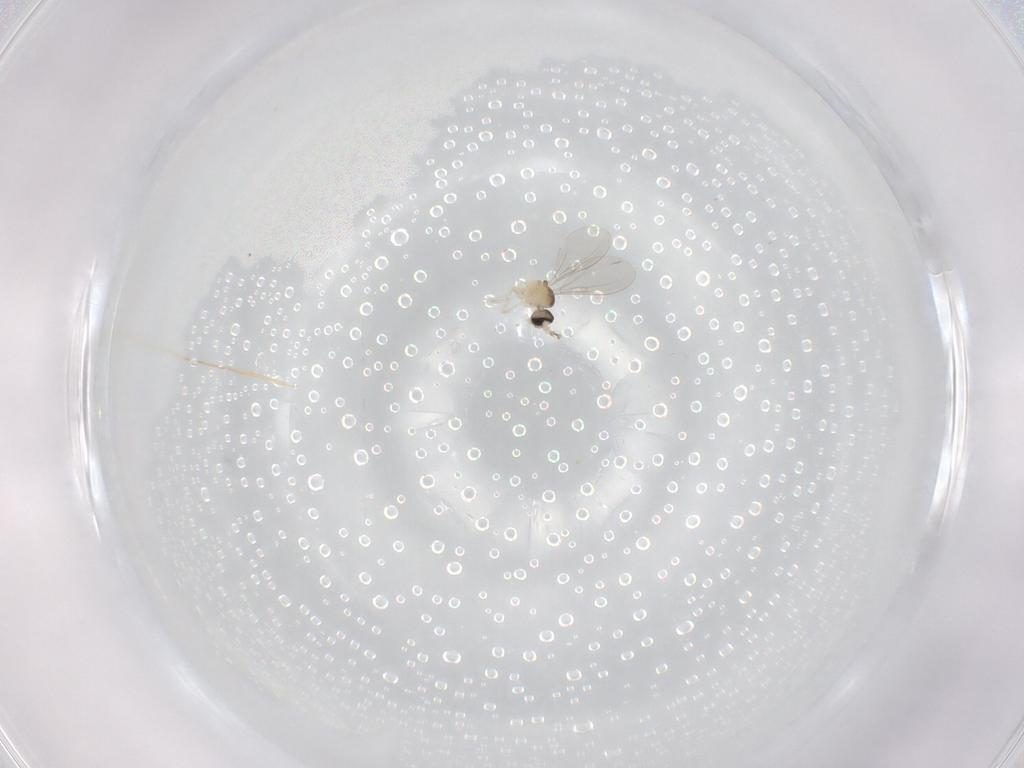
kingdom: Animalia
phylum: Arthropoda
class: Insecta
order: Diptera
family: Cecidomyiidae
